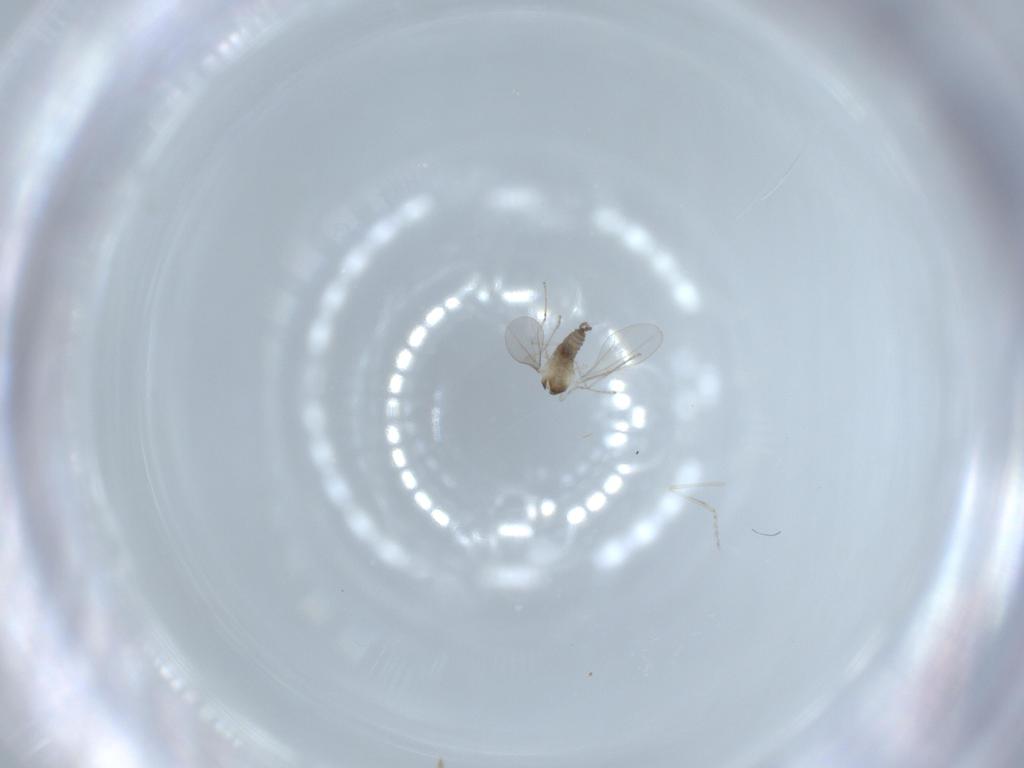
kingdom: Animalia
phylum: Arthropoda
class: Insecta
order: Diptera
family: Cecidomyiidae
